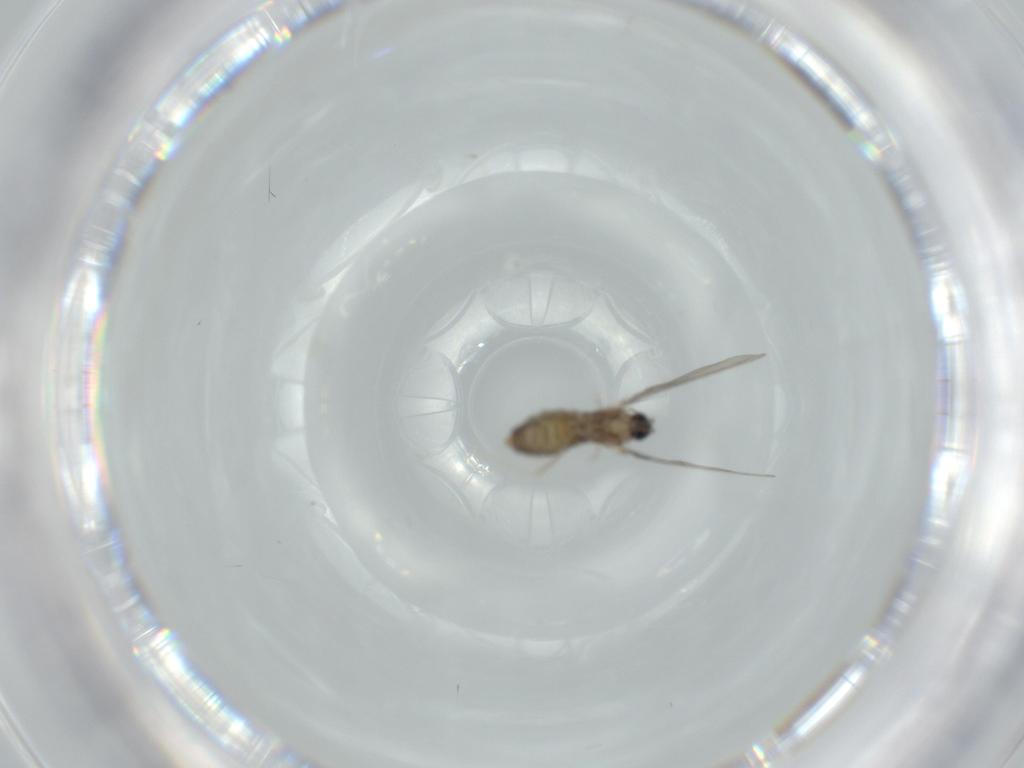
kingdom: Animalia
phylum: Arthropoda
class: Insecta
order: Diptera
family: Cecidomyiidae
